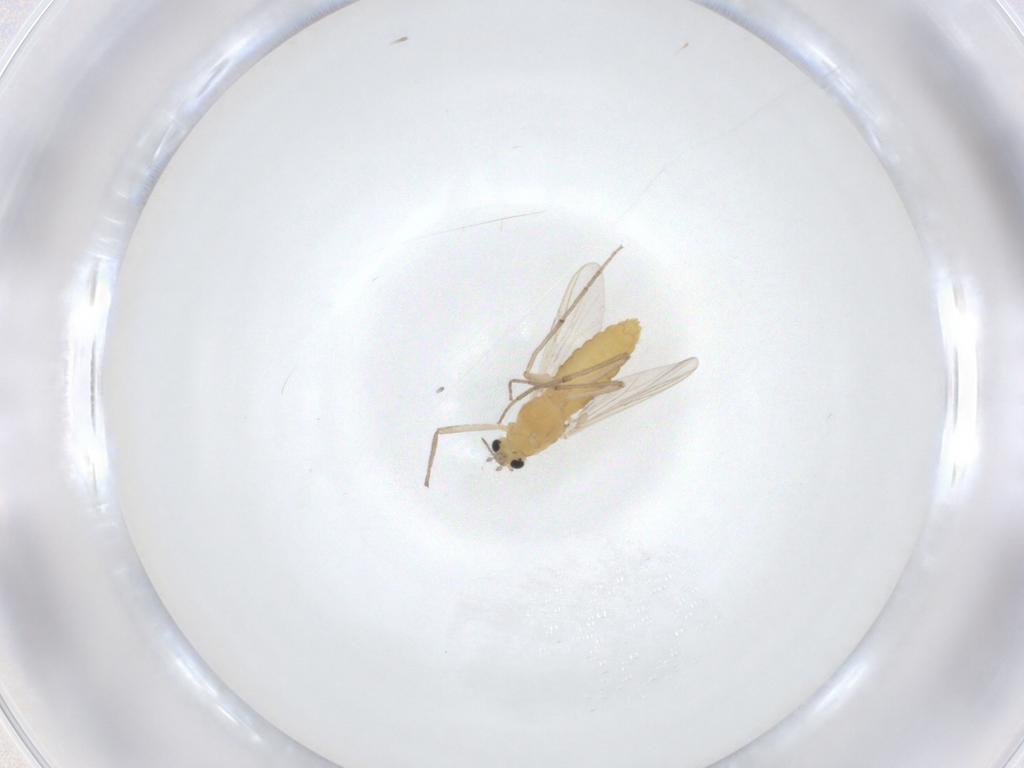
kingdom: Animalia
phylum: Arthropoda
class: Insecta
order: Diptera
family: Chironomidae
